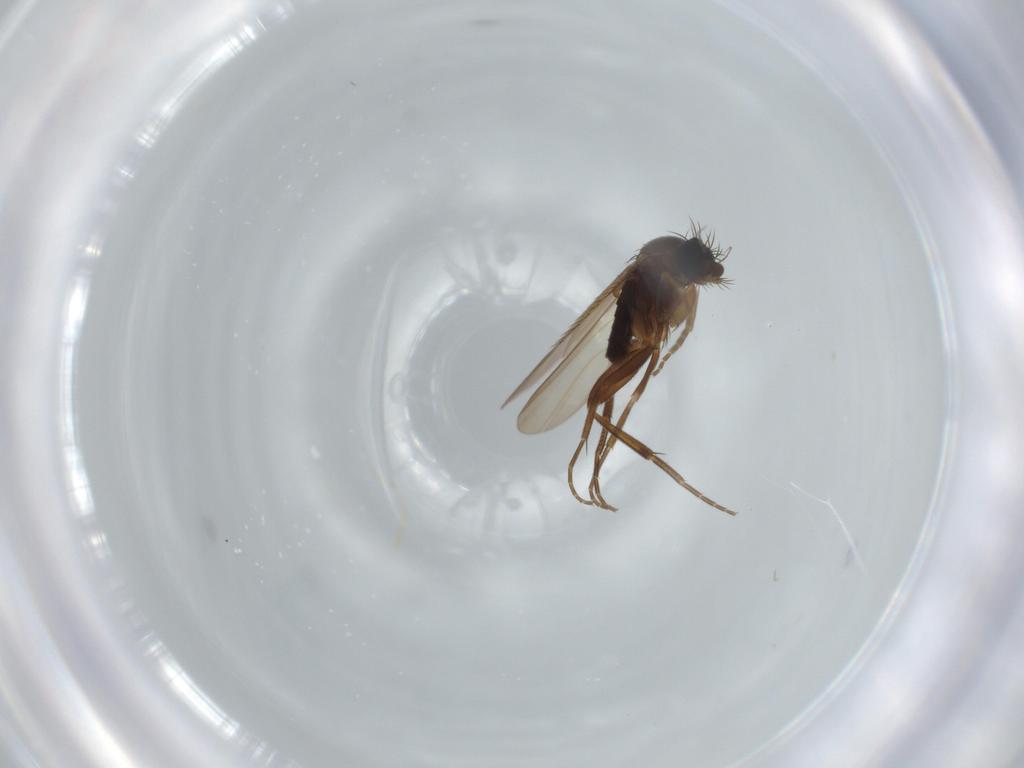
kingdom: Animalia
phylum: Arthropoda
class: Insecta
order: Diptera
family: Phoridae
